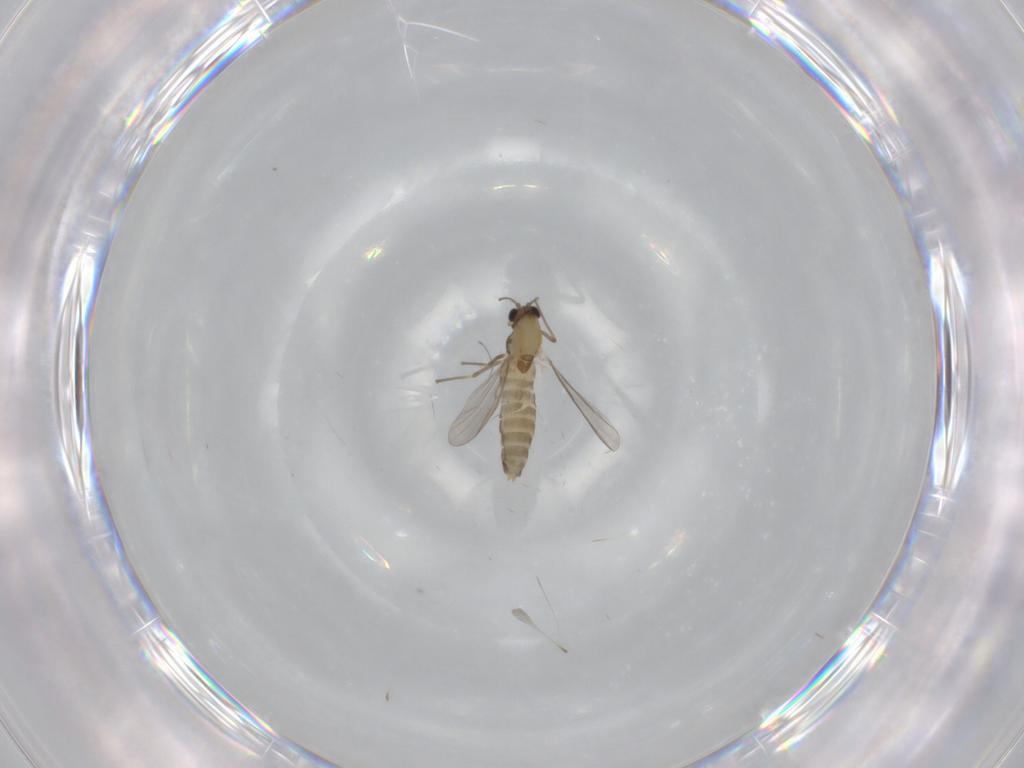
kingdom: Animalia
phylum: Arthropoda
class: Insecta
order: Diptera
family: Chironomidae
